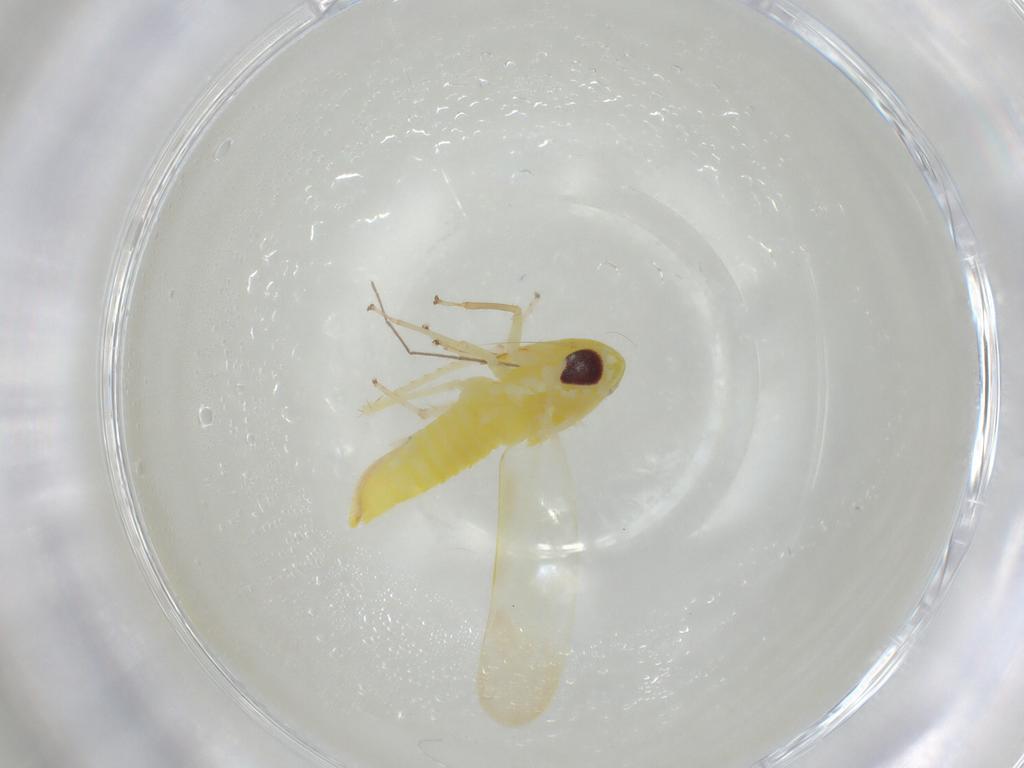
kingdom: Animalia
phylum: Arthropoda
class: Insecta
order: Hemiptera
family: Cicadellidae
